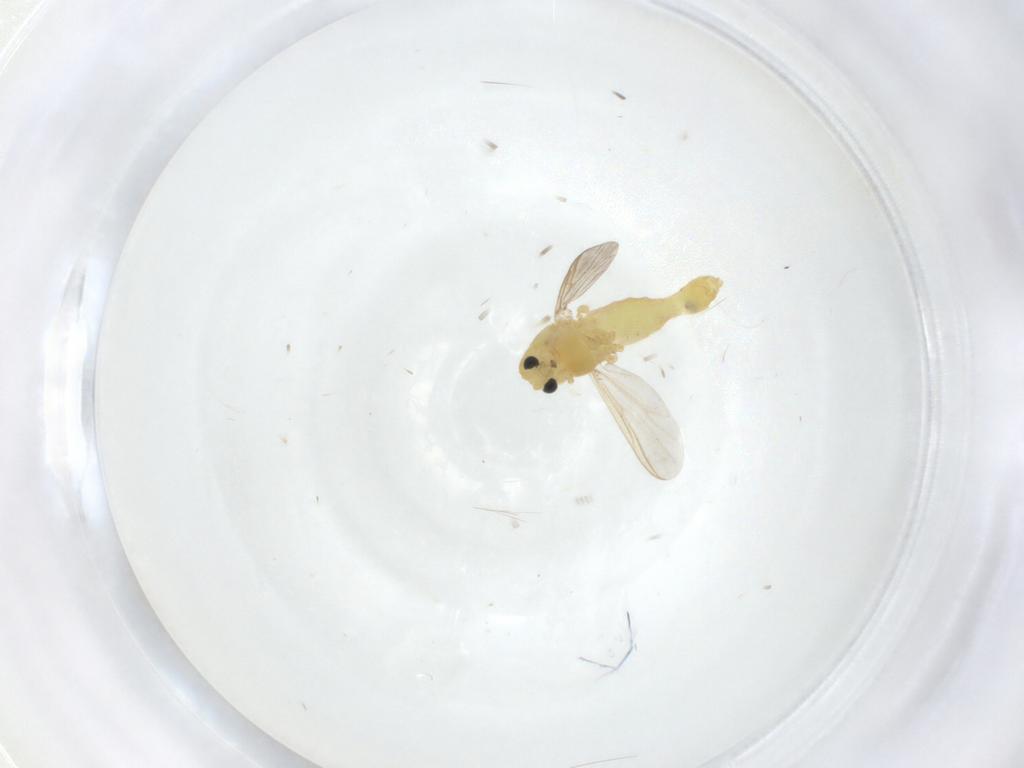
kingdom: Animalia
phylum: Arthropoda
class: Insecta
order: Diptera
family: Chironomidae
